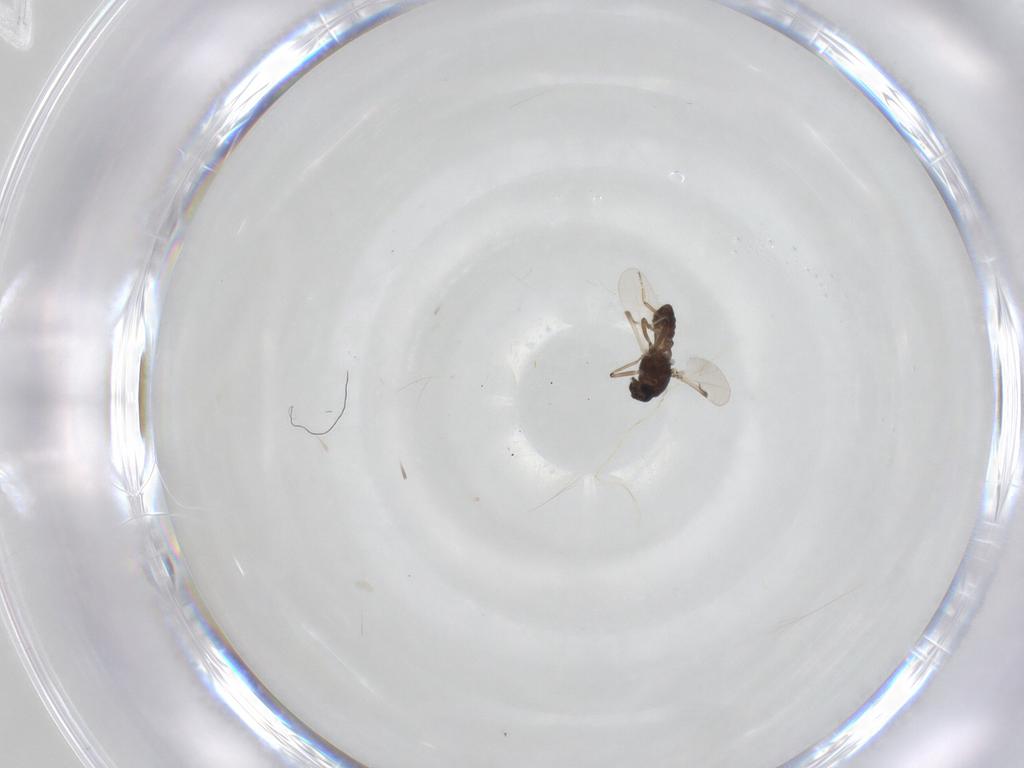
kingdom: Animalia
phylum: Arthropoda
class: Insecta
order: Diptera
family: Ceratopogonidae
